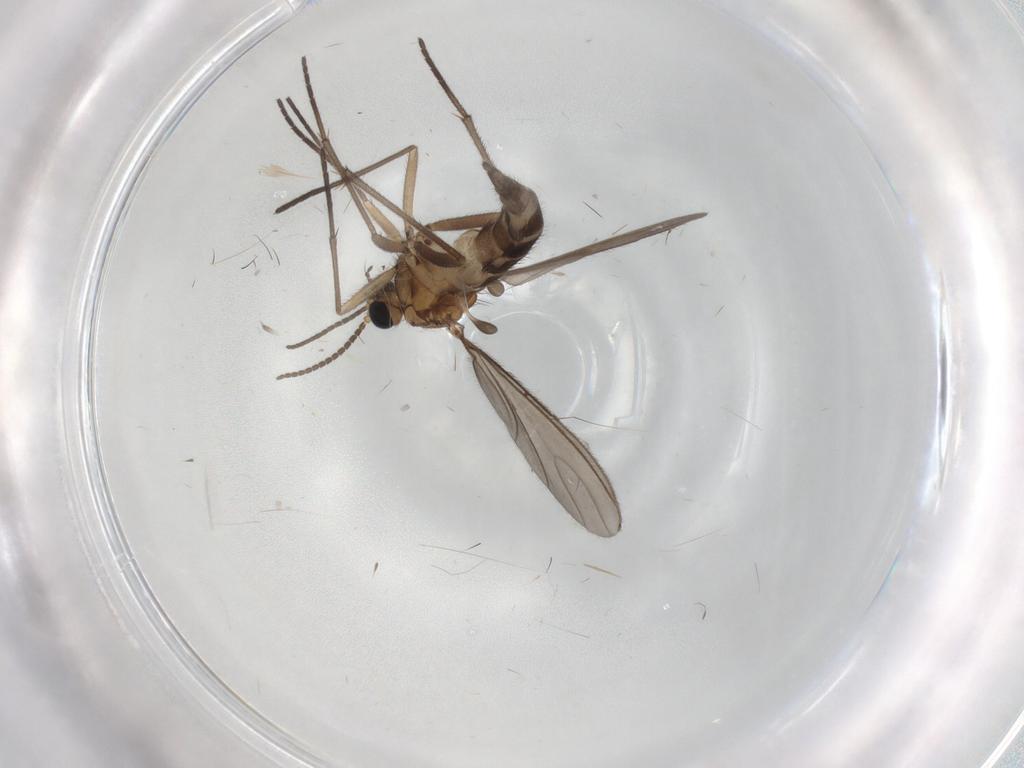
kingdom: Animalia
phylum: Arthropoda
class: Insecta
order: Diptera
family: Sciaridae
